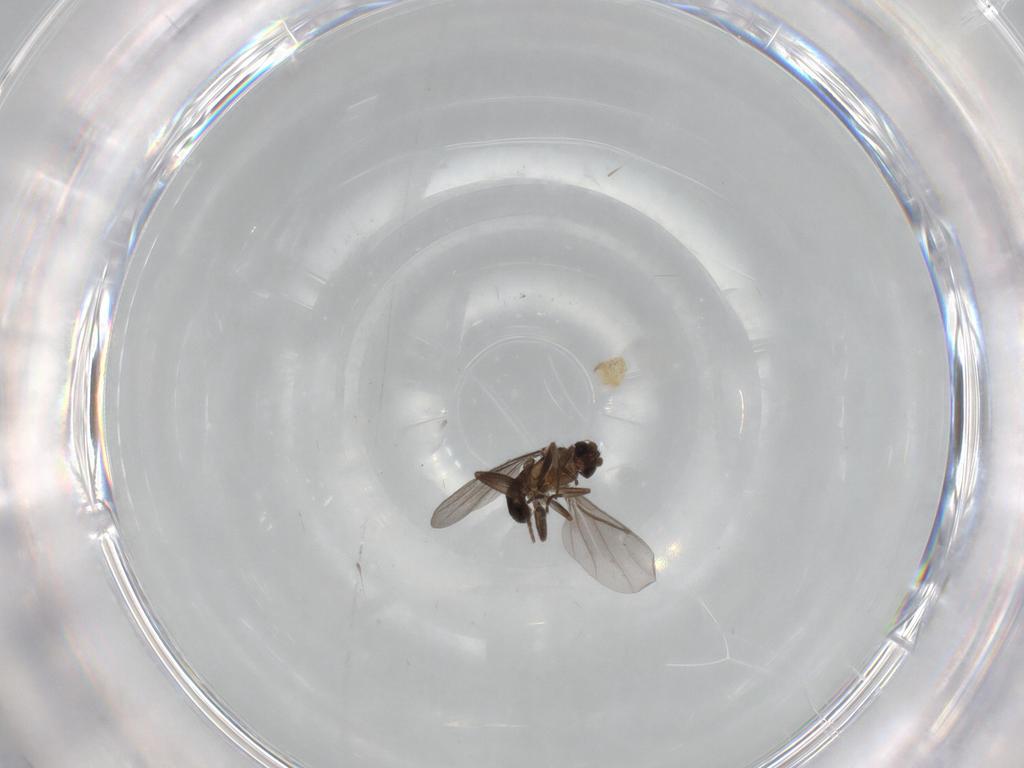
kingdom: Animalia
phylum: Arthropoda
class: Insecta
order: Diptera
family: Phoridae
